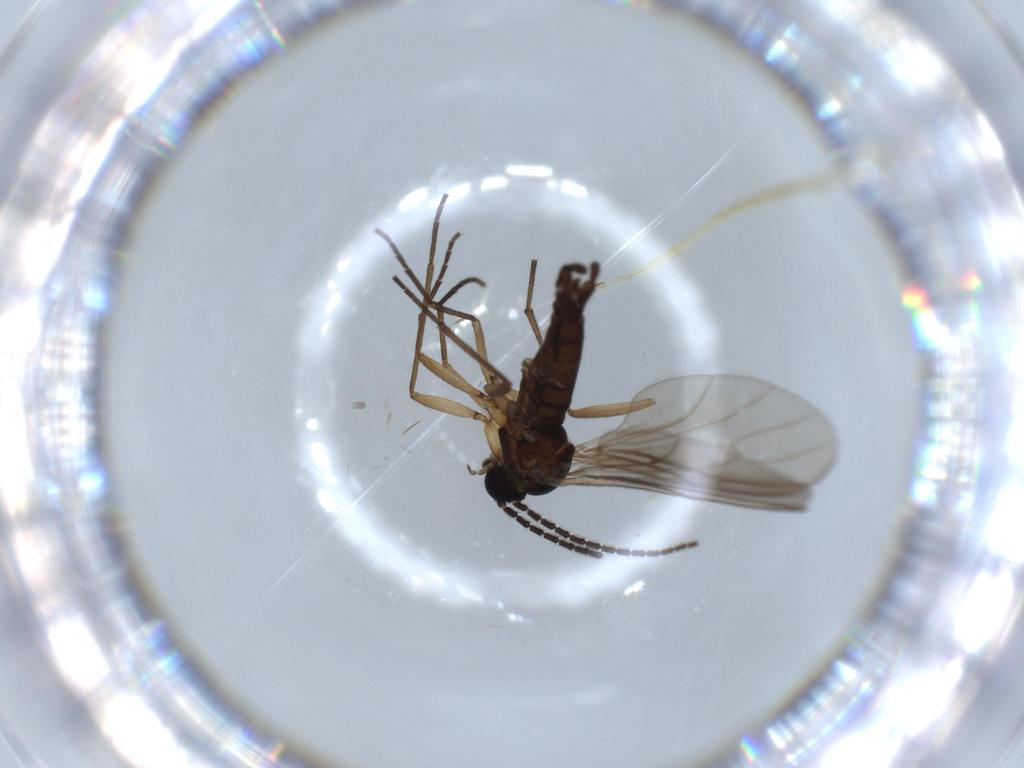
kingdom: Animalia
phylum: Arthropoda
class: Insecta
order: Diptera
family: Sciaridae
